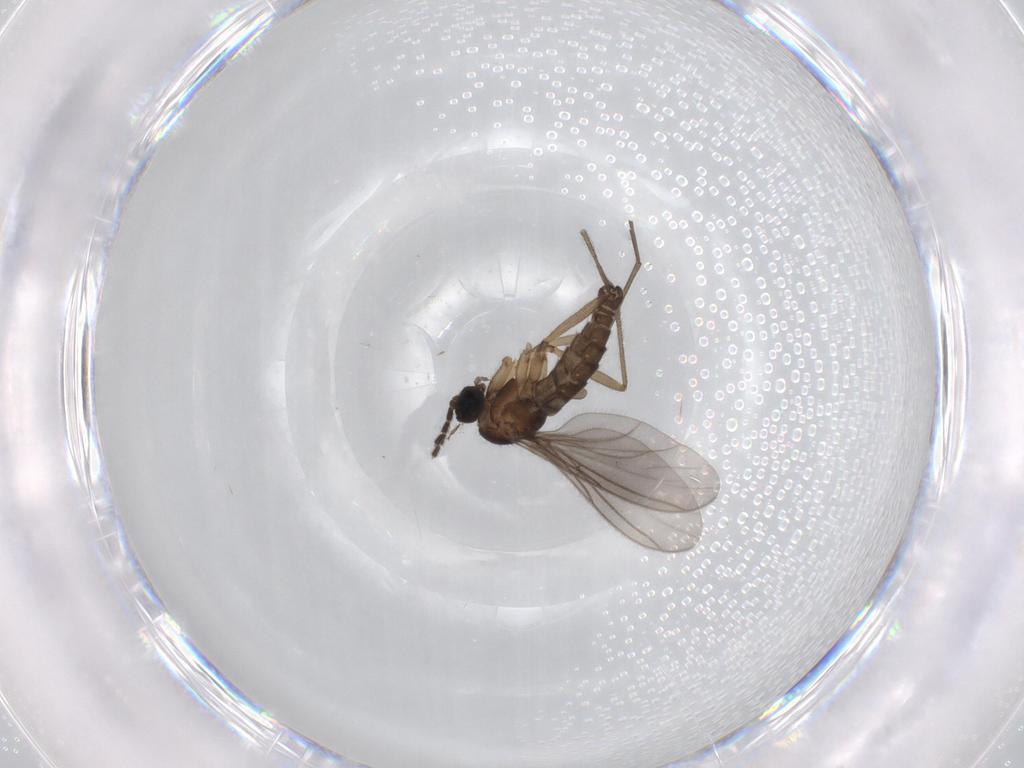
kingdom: Animalia
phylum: Arthropoda
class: Insecta
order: Diptera
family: Sciaridae
